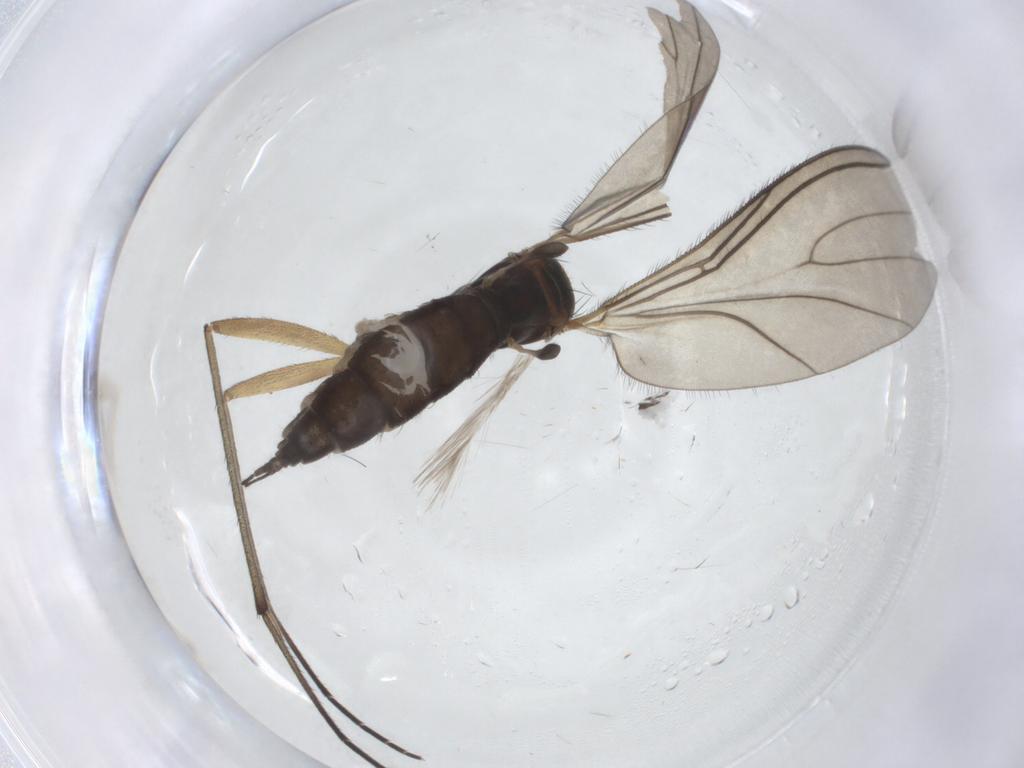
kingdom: Animalia
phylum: Arthropoda
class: Insecta
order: Diptera
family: Sciaridae
